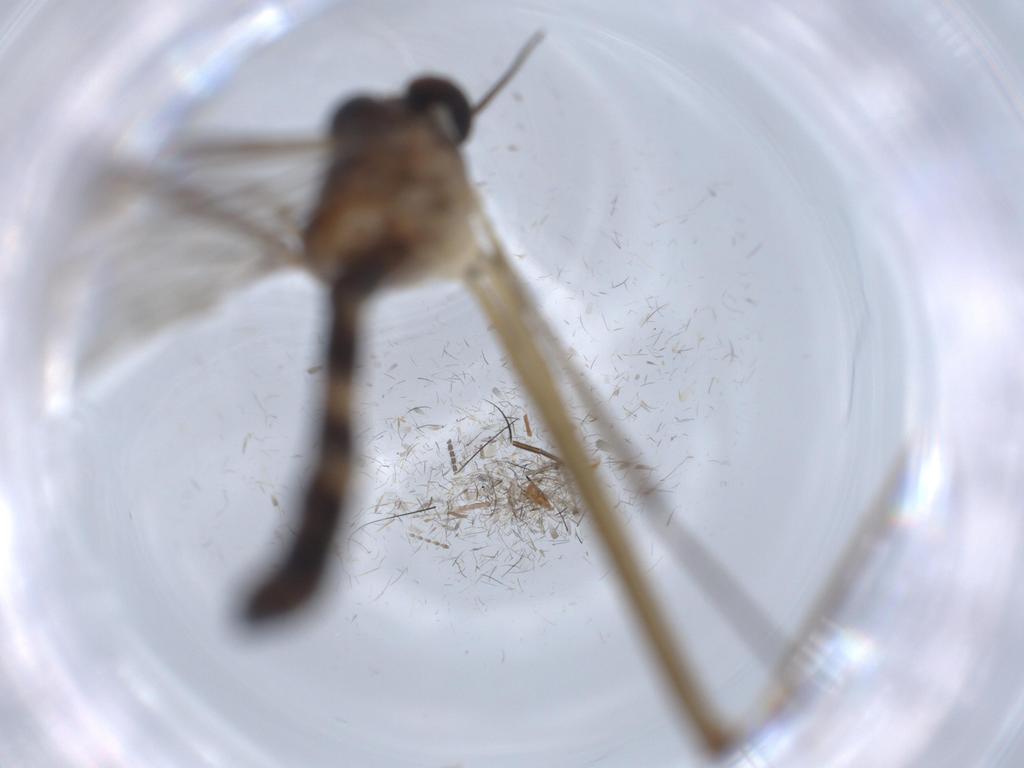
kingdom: Animalia
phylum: Arthropoda
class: Insecta
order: Diptera
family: Blephariceridae
